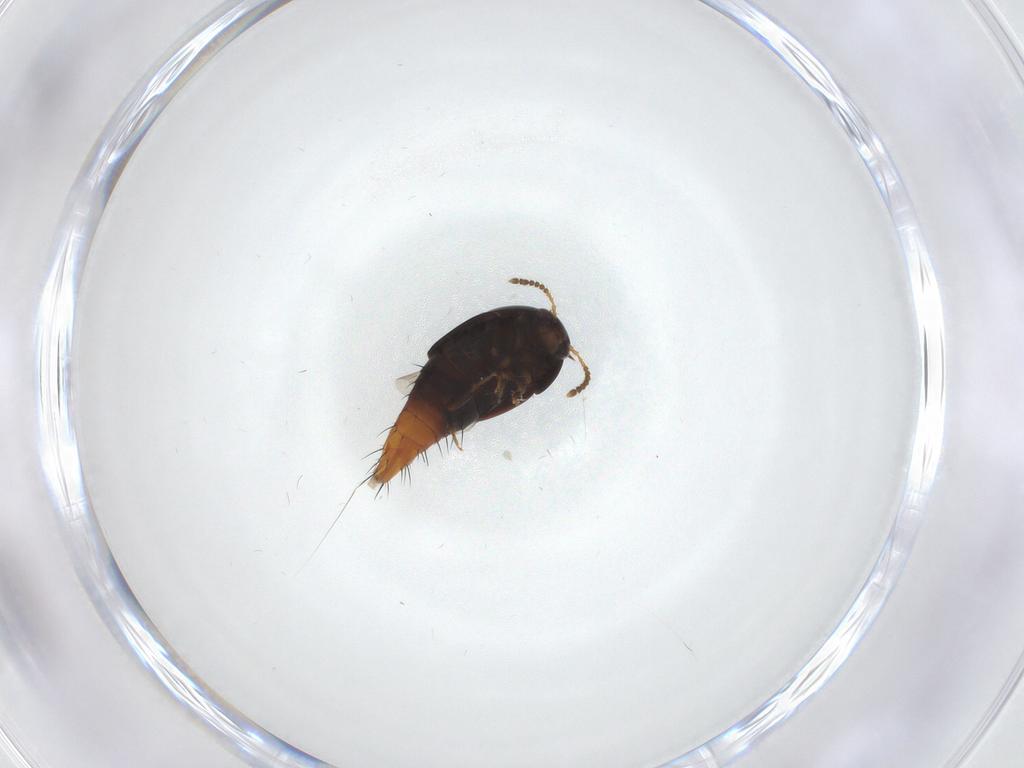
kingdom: Animalia
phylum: Arthropoda
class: Insecta
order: Coleoptera
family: Staphylinidae
